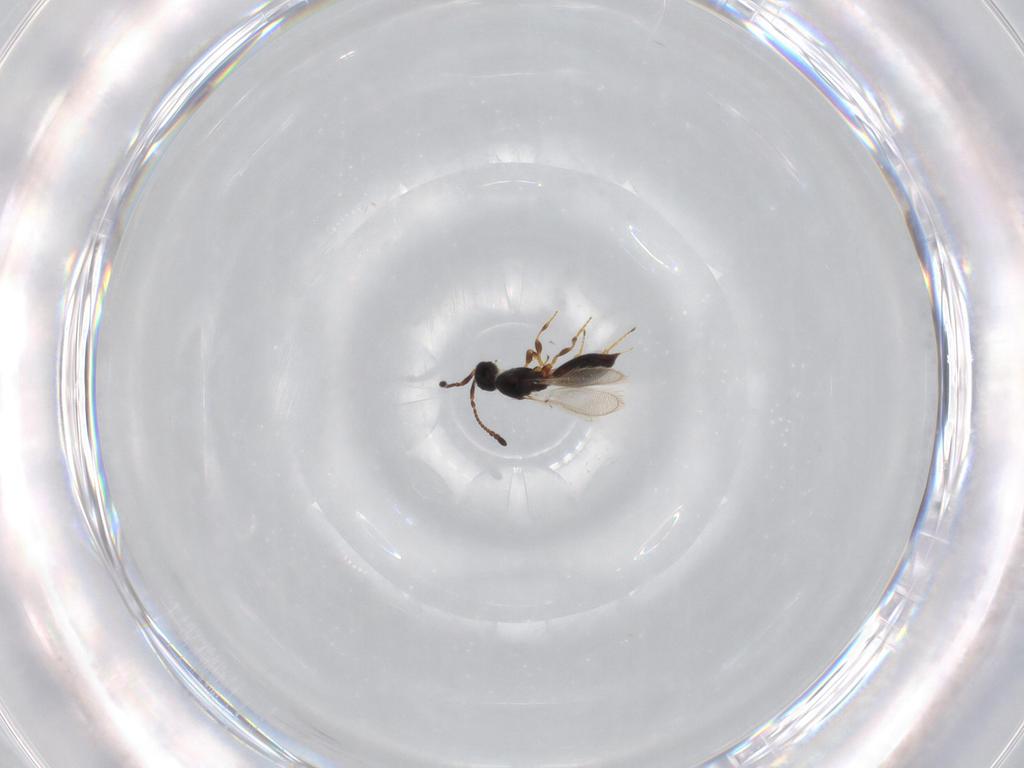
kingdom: Animalia
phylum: Arthropoda
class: Insecta
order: Hymenoptera
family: Diapriidae
